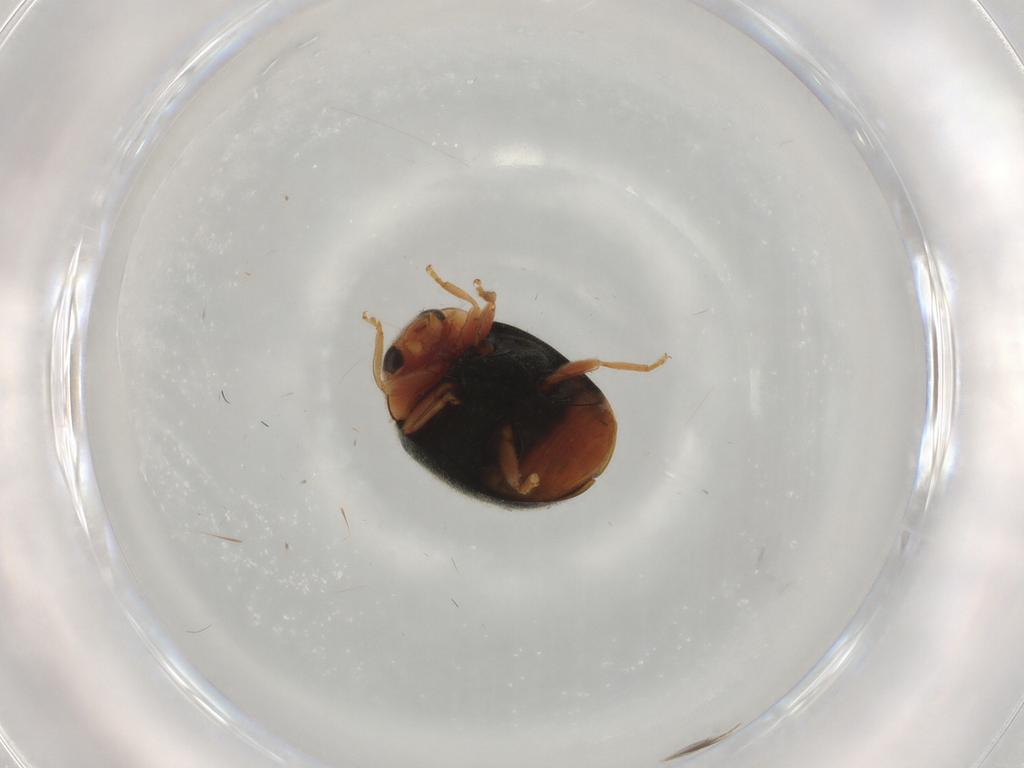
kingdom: Animalia
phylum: Arthropoda
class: Insecta
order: Coleoptera
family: Coccinellidae
